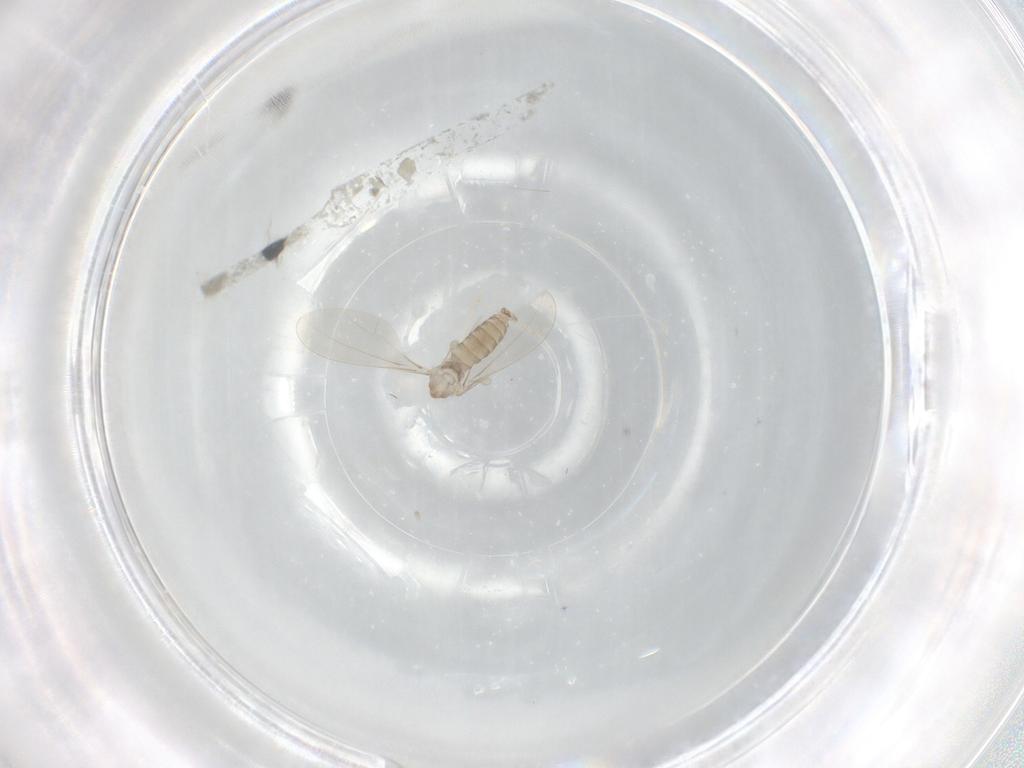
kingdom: Animalia
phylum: Arthropoda
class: Insecta
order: Diptera
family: Cecidomyiidae
